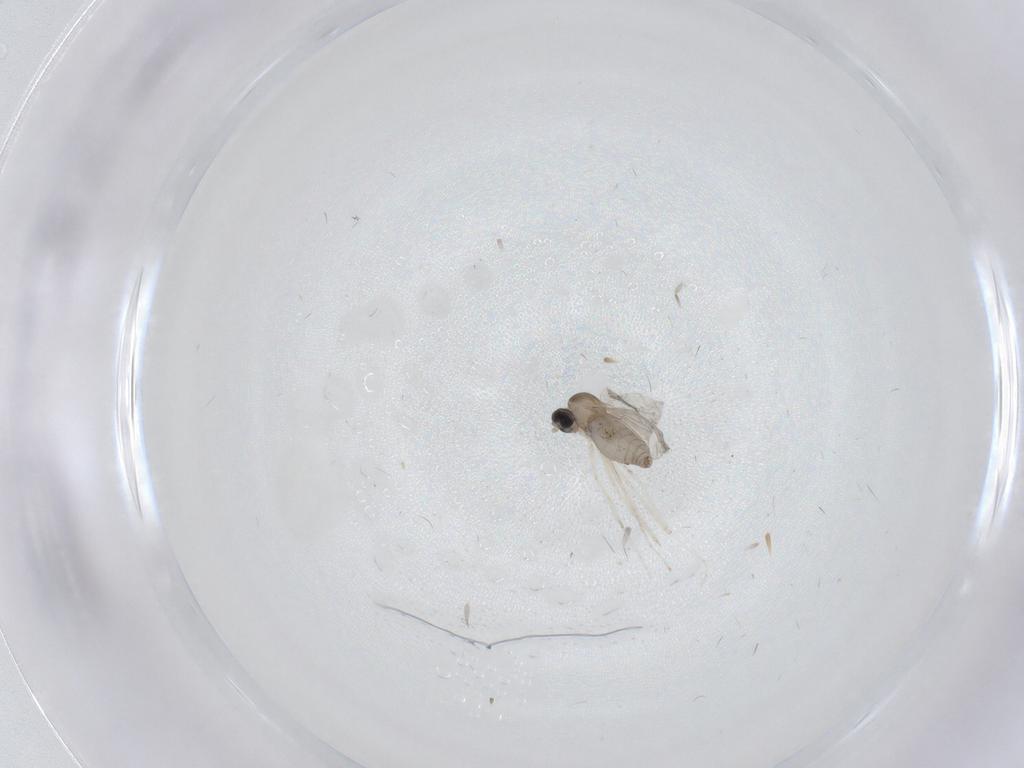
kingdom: Animalia
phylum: Arthropoda
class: Insecta
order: Diptera
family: Cecidomyiidae
